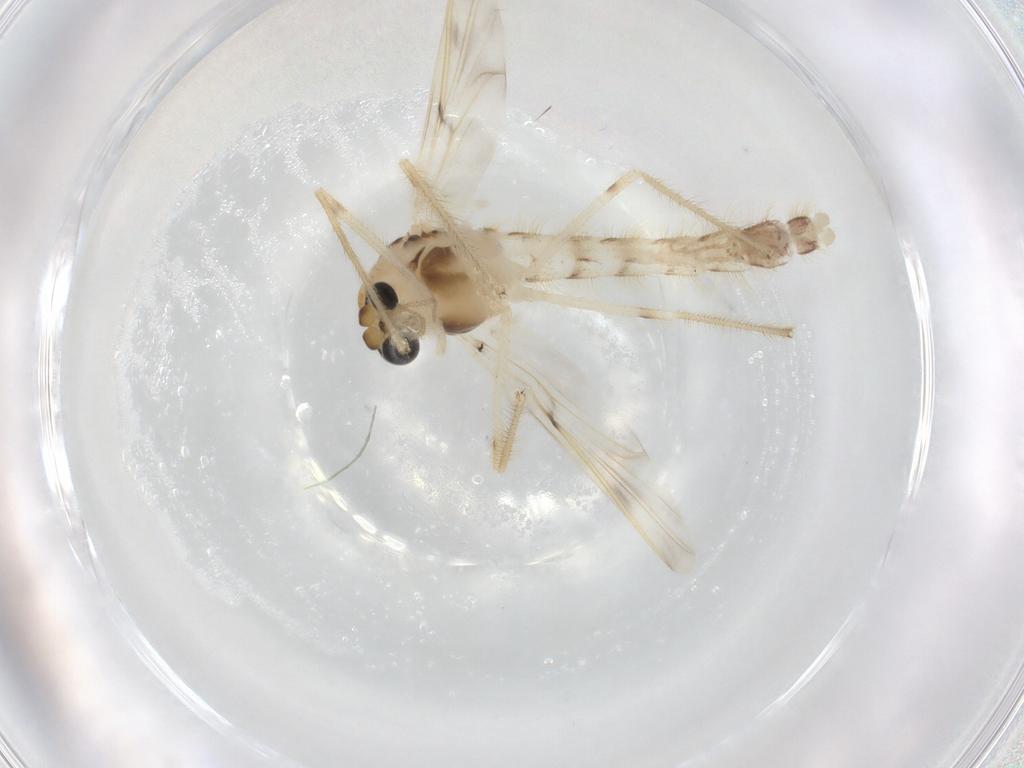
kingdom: Animalia
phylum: Arthropoda
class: Insecta
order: Diptera
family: Chironomidae
